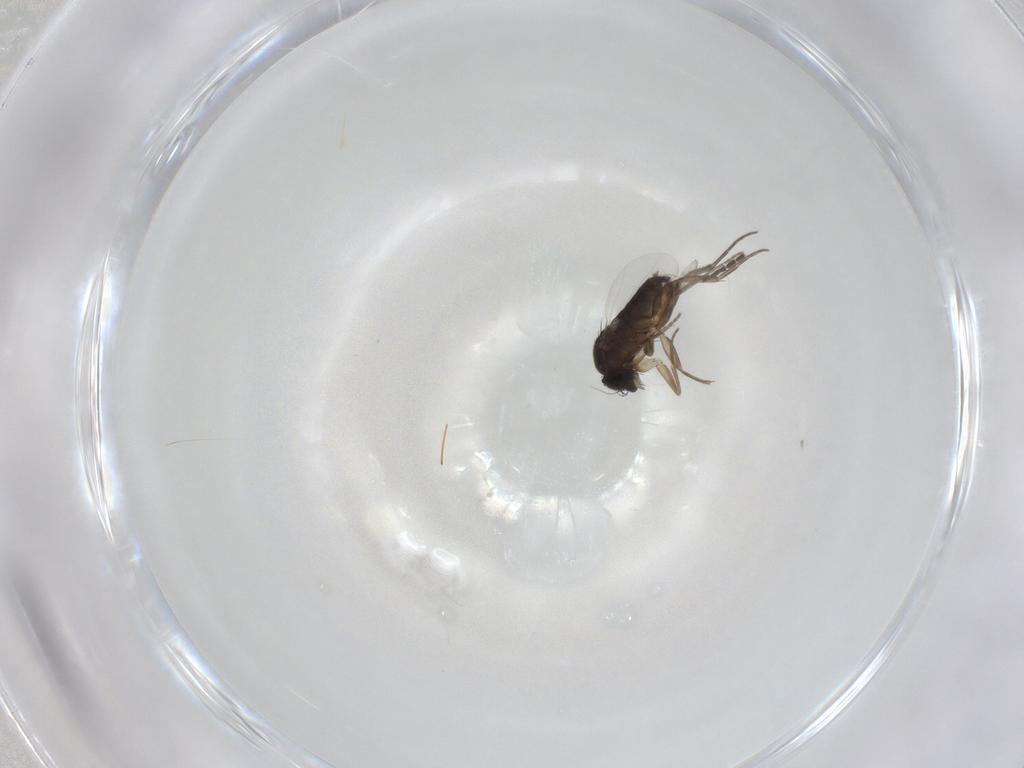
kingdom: Animalia
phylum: Arthropoda
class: Insecta
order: Diptera
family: Phoridae
